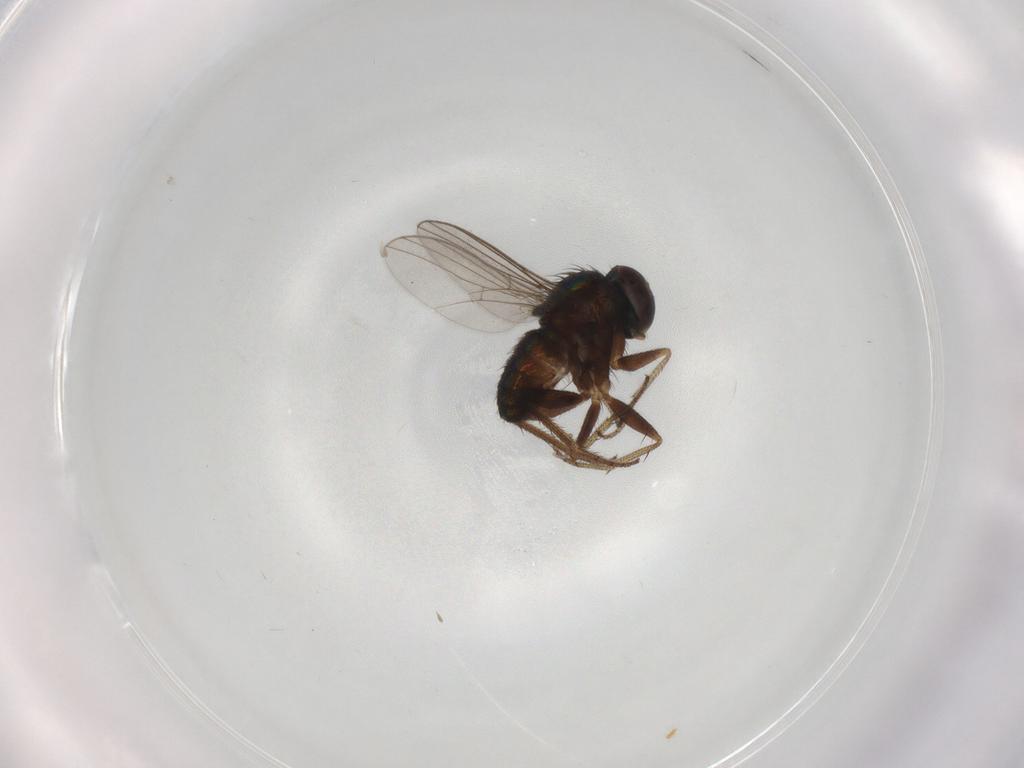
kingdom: Animalia
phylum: Arthropoda
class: Insecta
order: Diptera
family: Dolichopodidae
